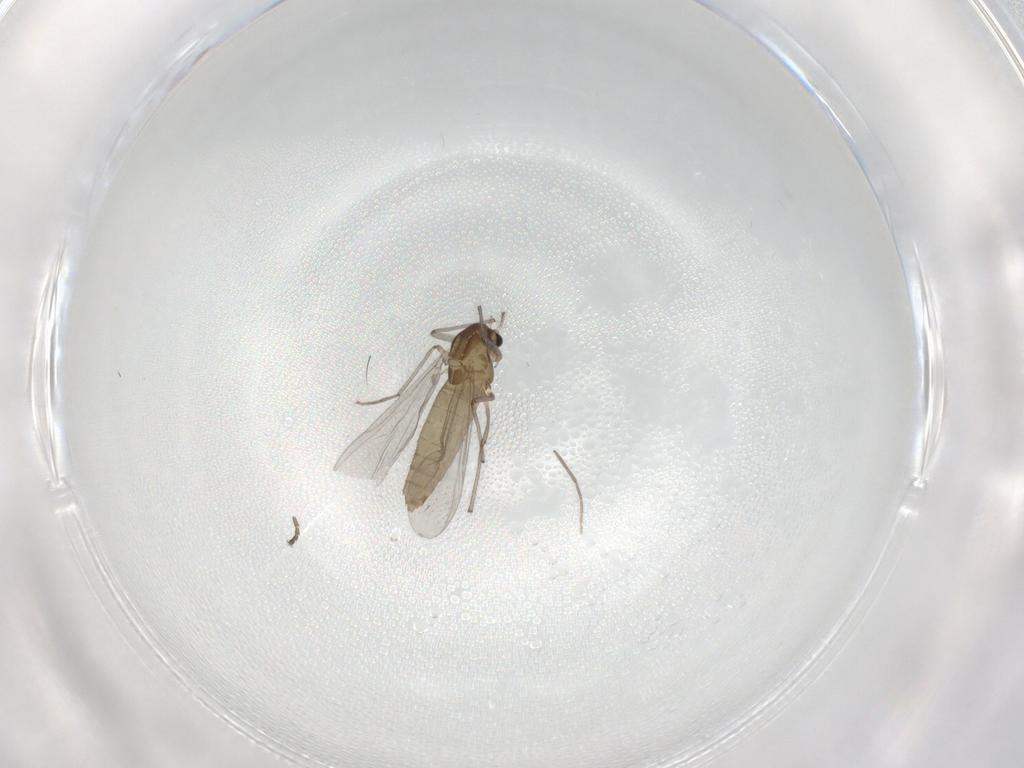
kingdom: Animalia
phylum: Arthropoda
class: Insecta
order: Diptera
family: Chironomidae
